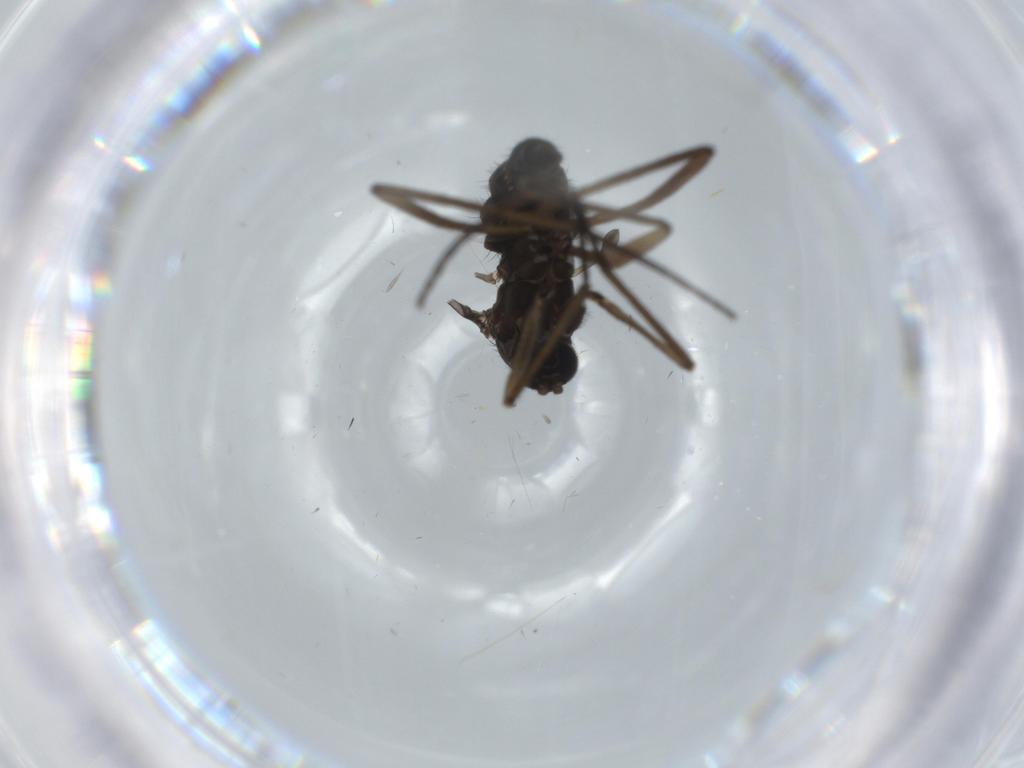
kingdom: Animalia
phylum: Arthropoda
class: Insecta
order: Diptera
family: Sciaridae
